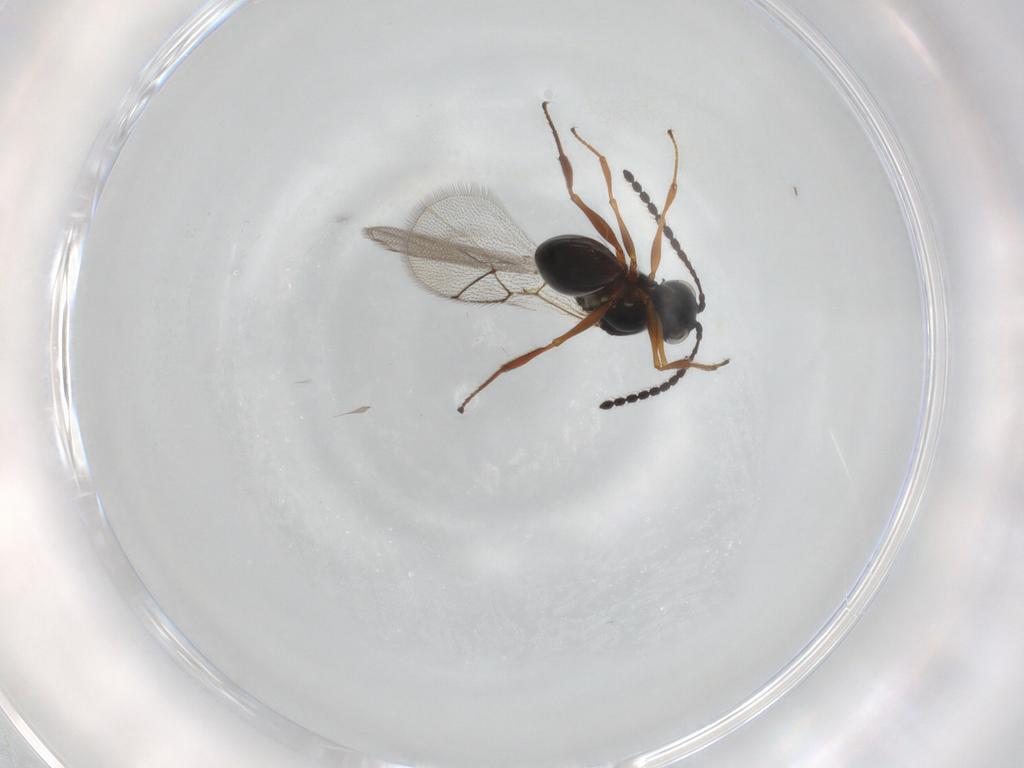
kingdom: Animalia
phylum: Arthropoda
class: Insecta
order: Hymenoptera
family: Figitidae
